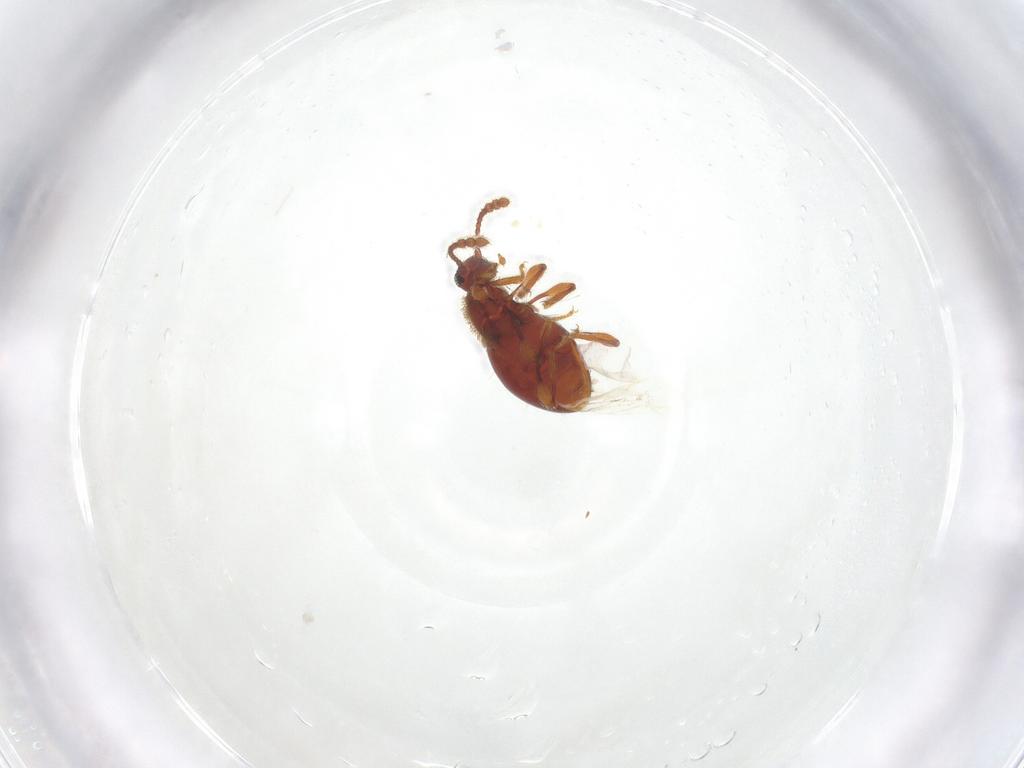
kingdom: Animalia
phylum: Arthropoda
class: Insecta
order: Coleoptera
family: Staphylinidae
